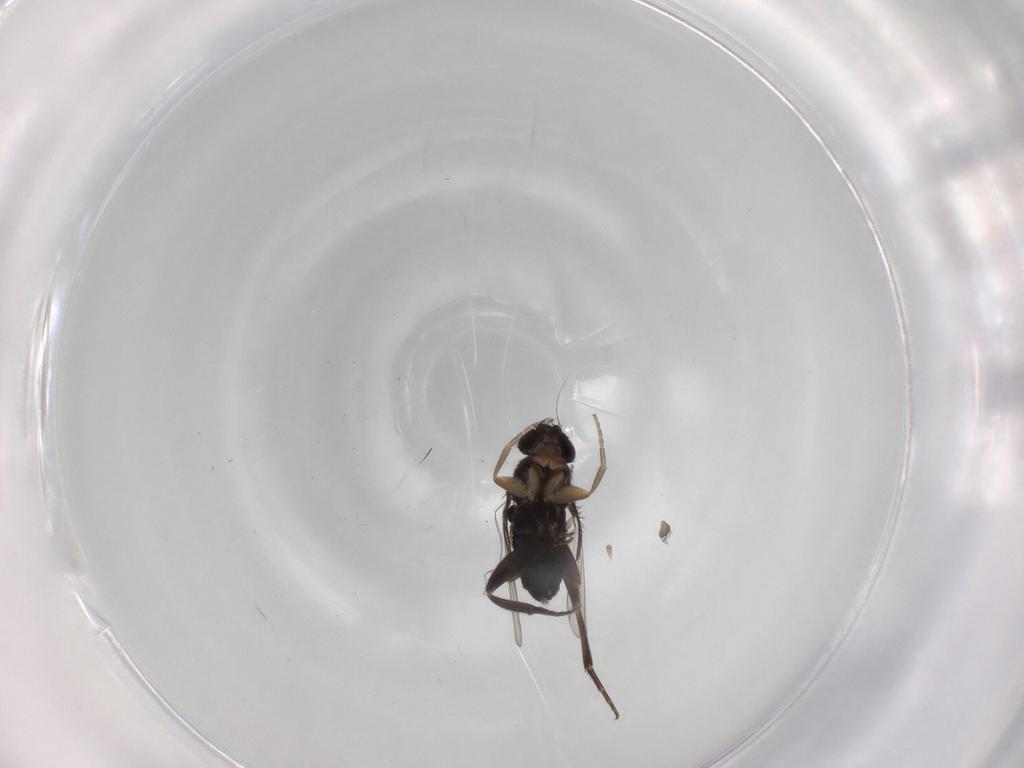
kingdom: Animalia
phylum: Arthropoda
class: Insecta
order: Diptera
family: Phoridae
